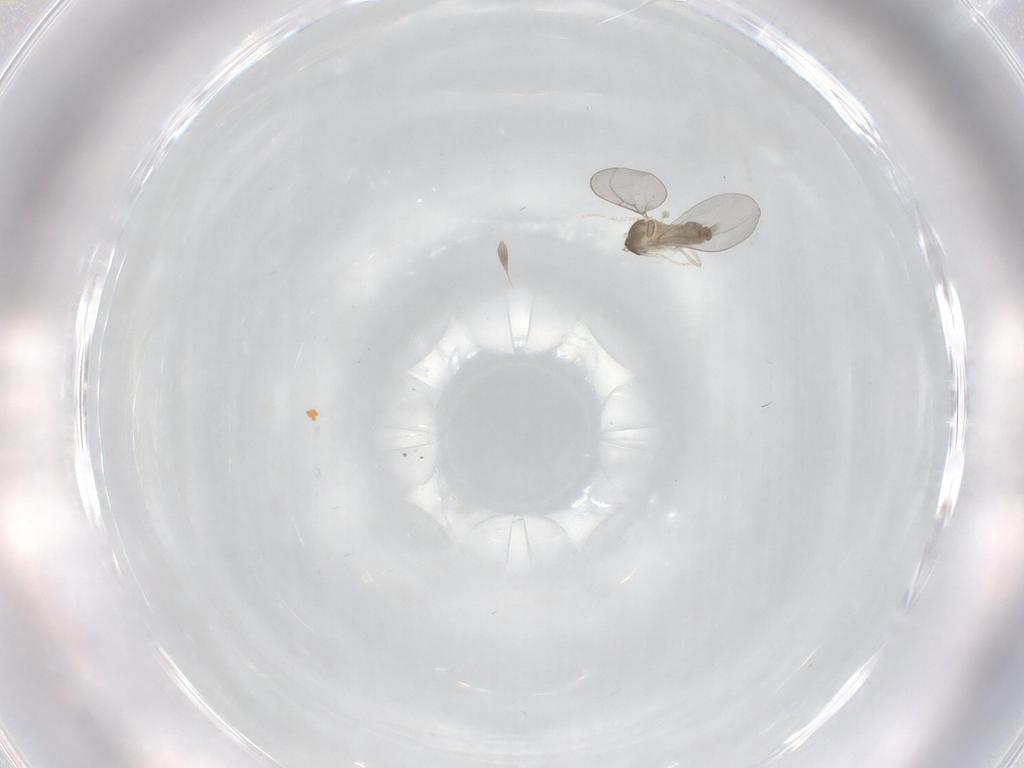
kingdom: Animalia
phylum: Arthropoda
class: Insecta
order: Diptera
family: Cecidomyiidae
